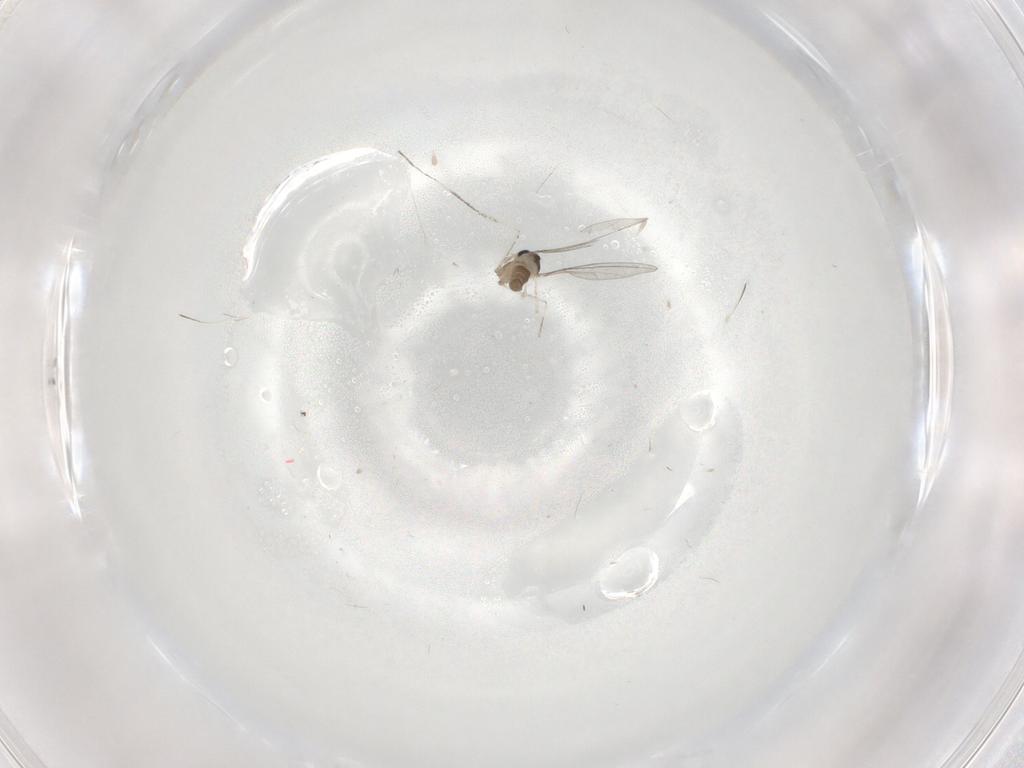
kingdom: Animalia
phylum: Arthropoda
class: Insecta
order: Diptera
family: Cecidomyiidae
